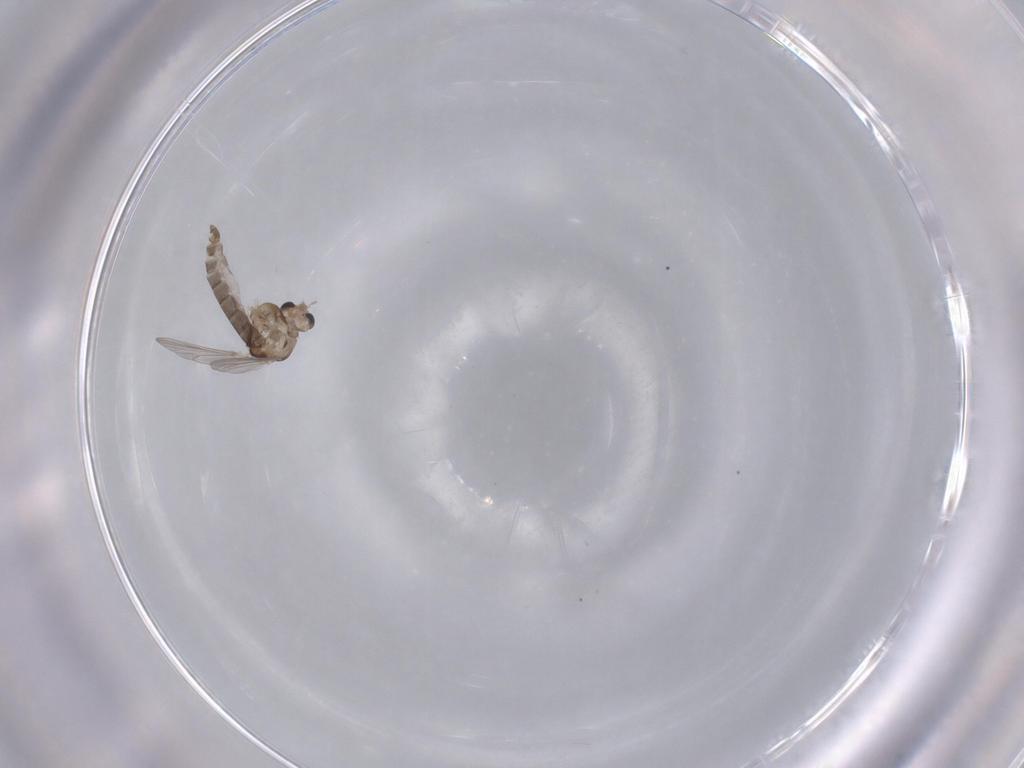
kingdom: Animalia
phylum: Arthropoda
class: Insecta
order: Diptera
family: Chironomidae
